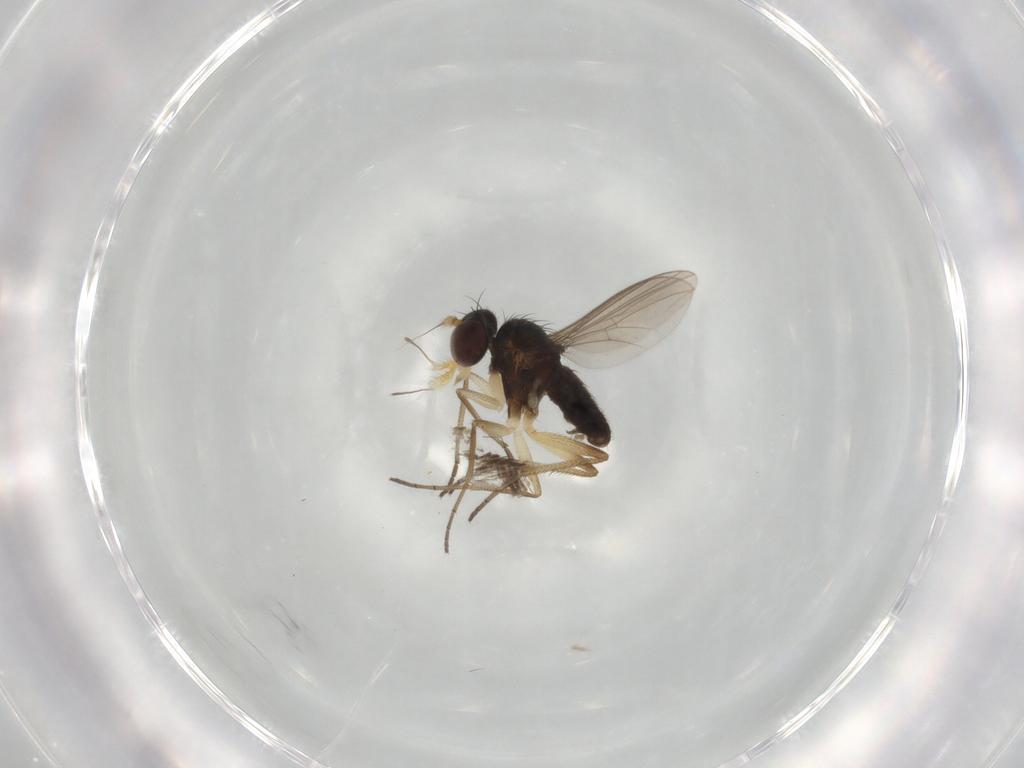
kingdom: Animalia
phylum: Arthropoda
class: Insecta
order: Diptera
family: Dolichopodidae
